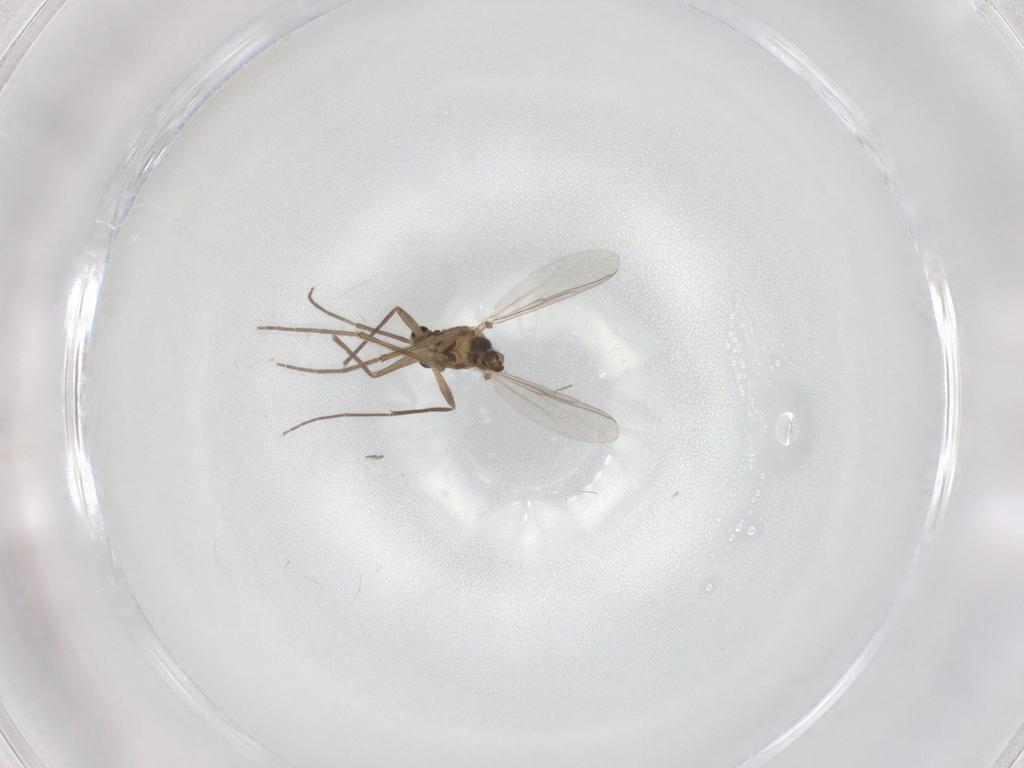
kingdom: Animalia
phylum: Arthropoda
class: Insecta
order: Diptera
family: Chironomidae
